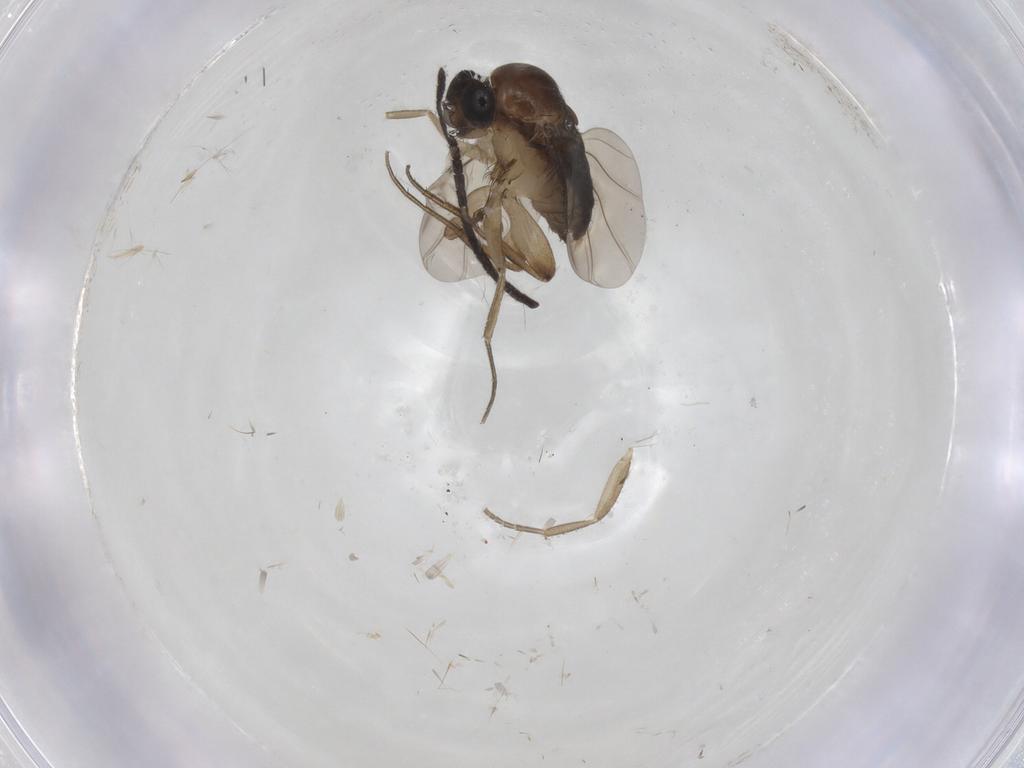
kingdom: Animalia
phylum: Arthropoda
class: Insecta
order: Diptera
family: Phoridae
